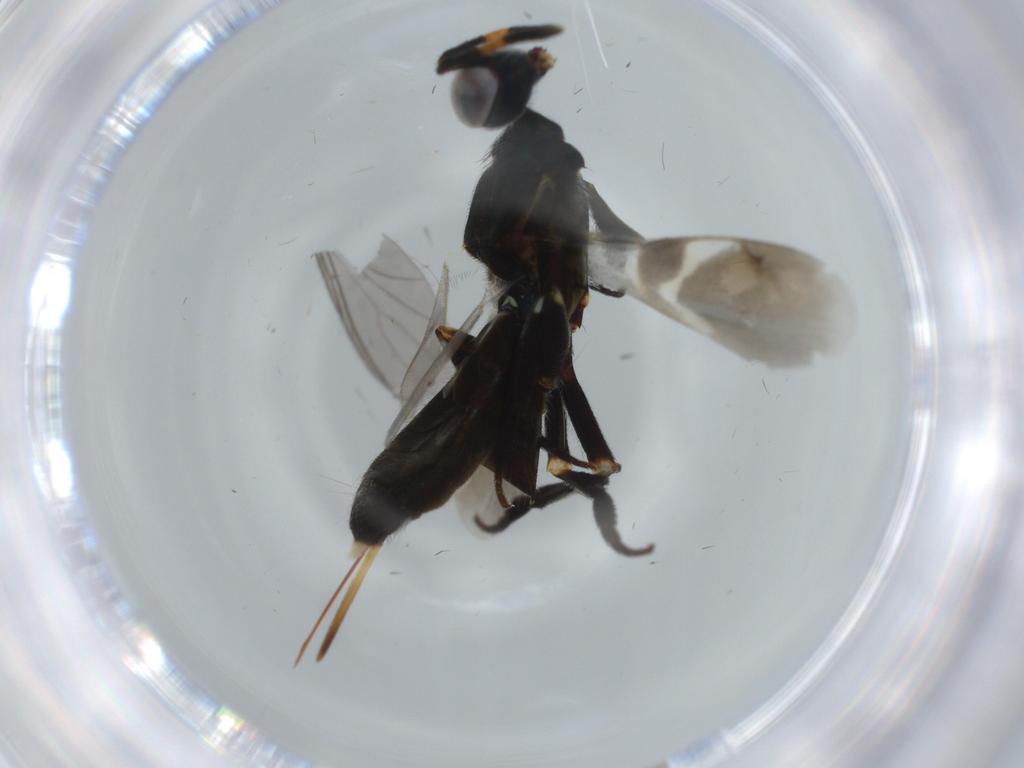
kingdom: Animalia
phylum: Arthropoda
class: Insecta
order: Hymenoptera
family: Eupelmidae
